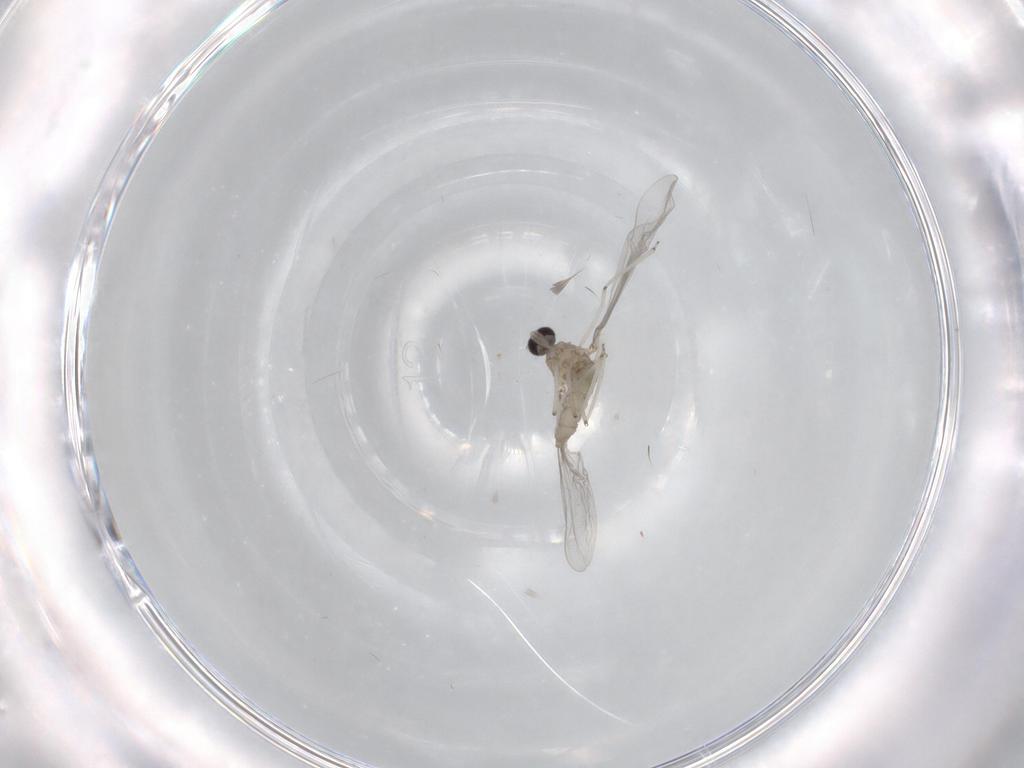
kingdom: Animalia
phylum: Arthropoda
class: Insecta
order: Diptera
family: Cecidomyiidae
